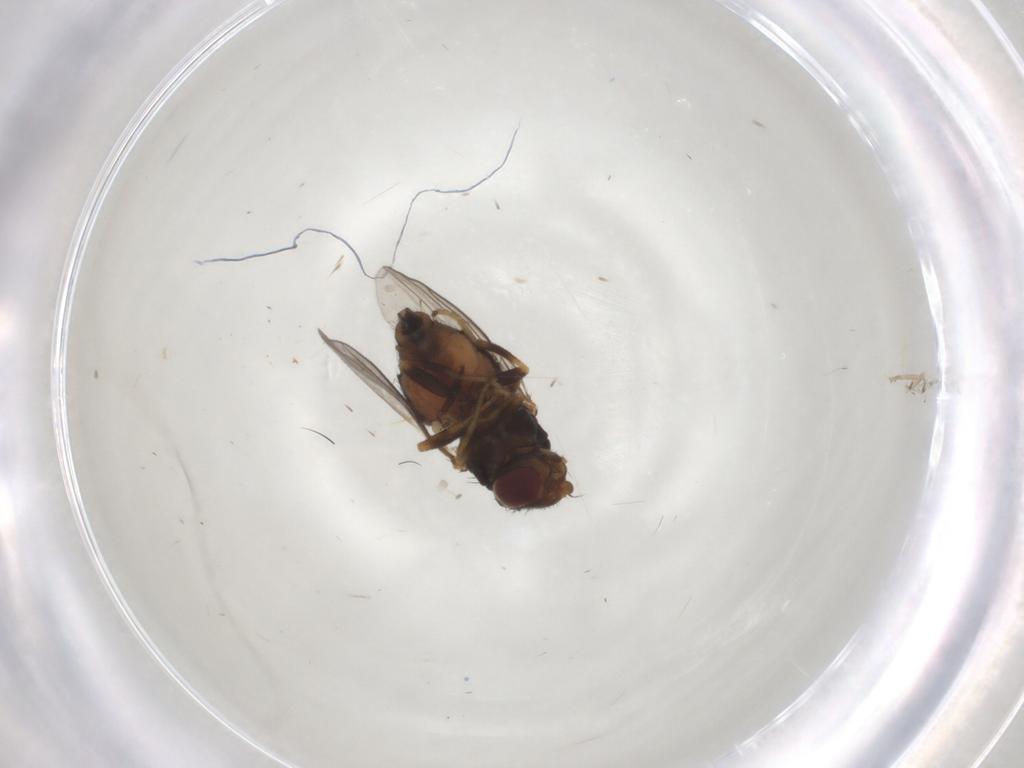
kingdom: Animalia
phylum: Arthropoda
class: Insecta
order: Diptera
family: Chloropidae
